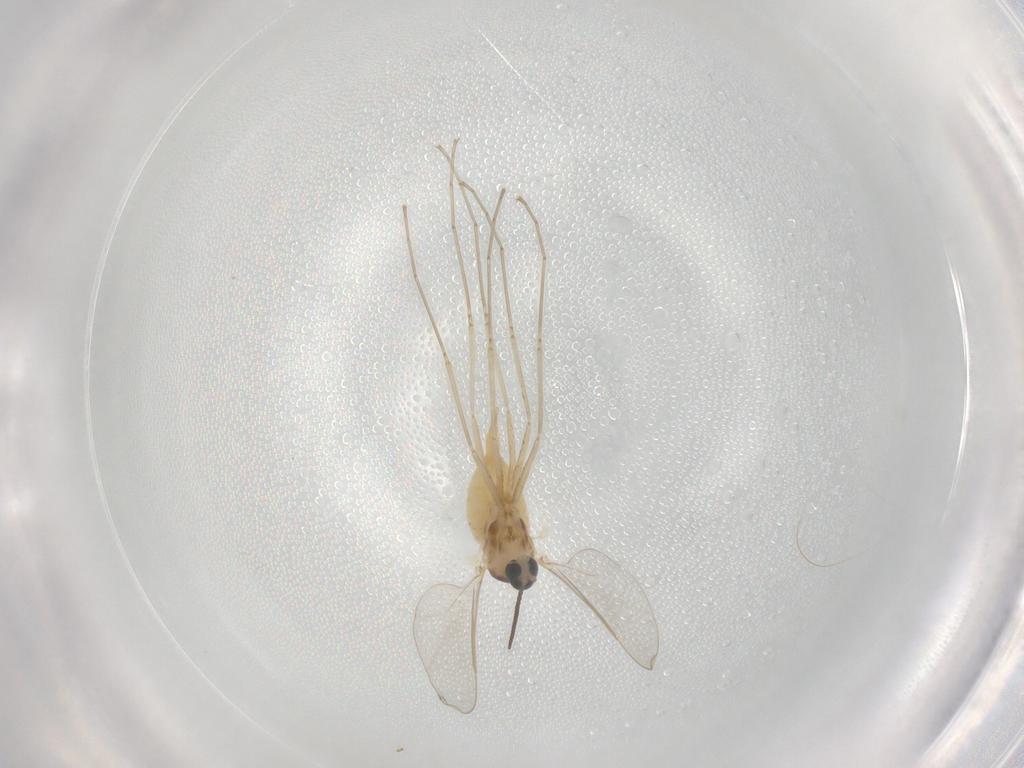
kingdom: Animalia
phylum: Arthropoda
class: Insecta
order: Diptera
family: Cecidomyiidae
